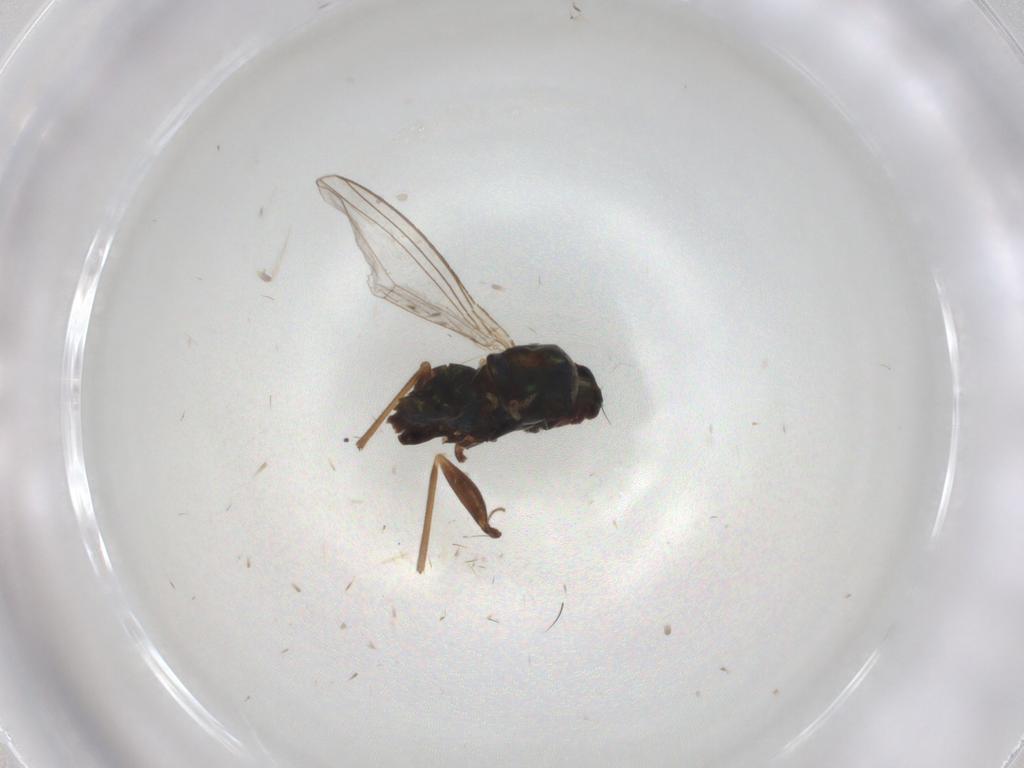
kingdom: Animalia
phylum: Arthropoda
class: Insecta
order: Diptera
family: Dolichopodidae
